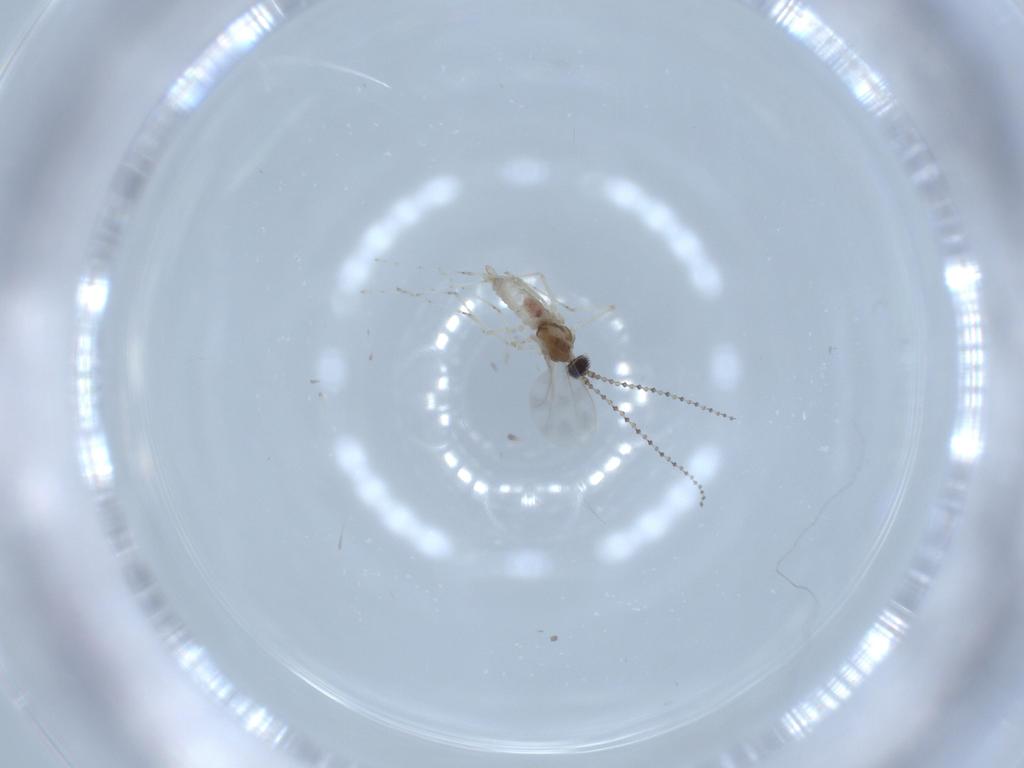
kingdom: Animalia
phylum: Arthropoda
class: Insecta
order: Diptera
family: Cecidomyiidae
